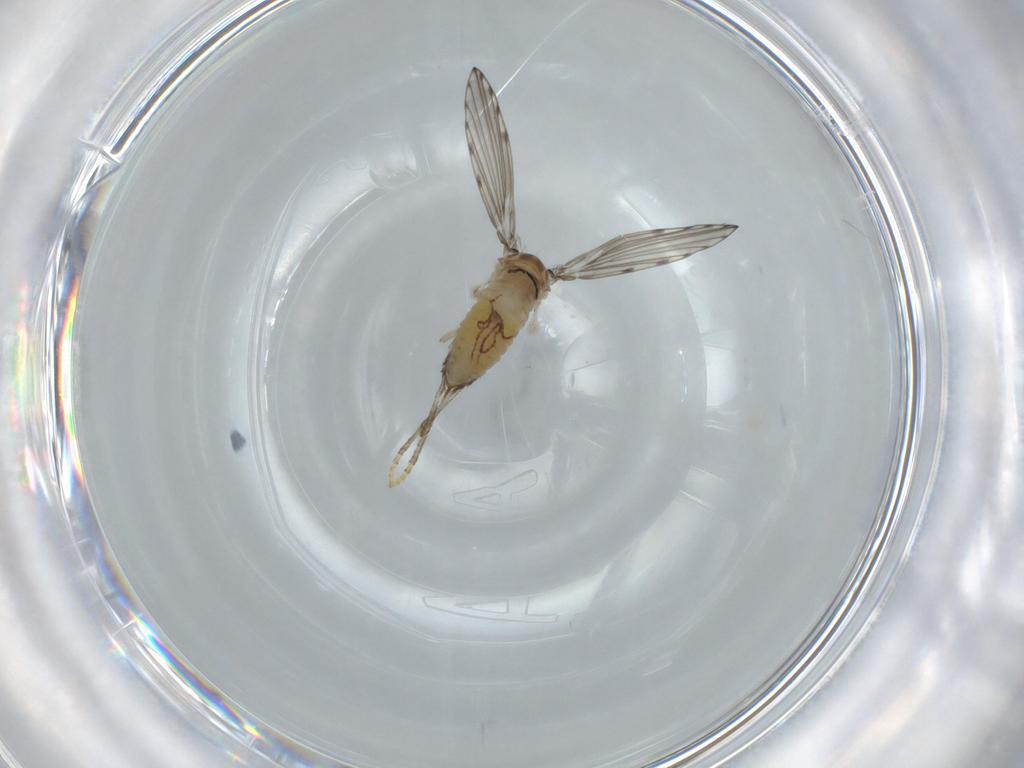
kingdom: Animalia
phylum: Arthropoda
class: Insecta
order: Diptera
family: Psychodidae
